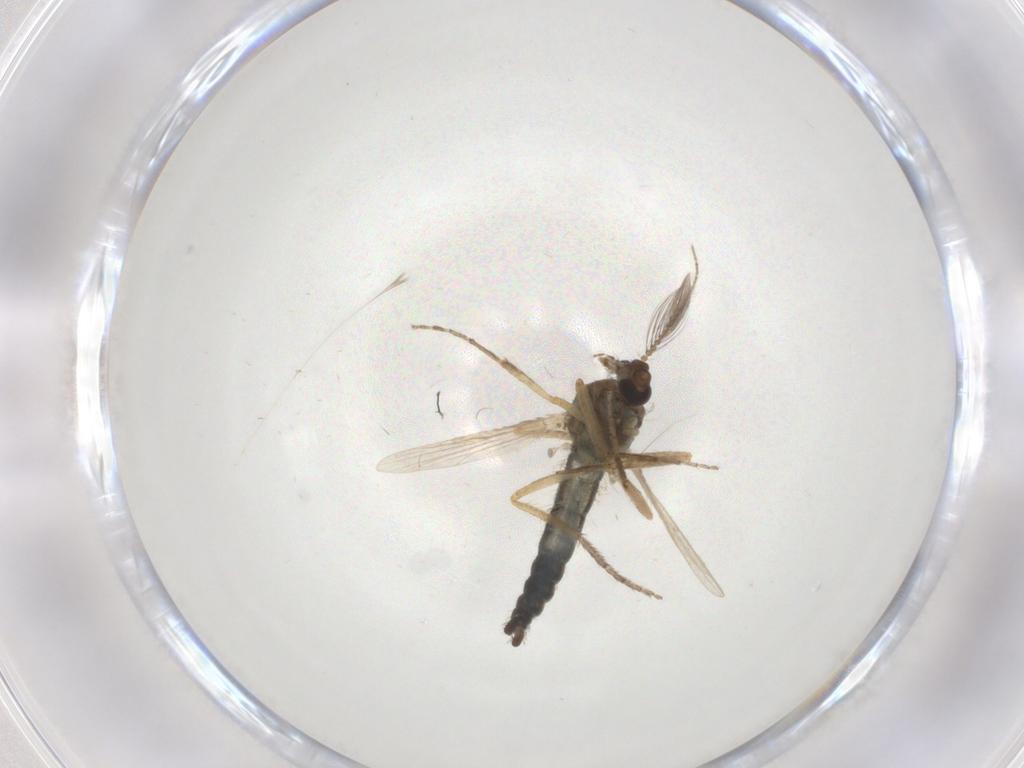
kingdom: Animalia
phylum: Arthropoda
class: Insecta
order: Diptera
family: Ceratopogonidae
